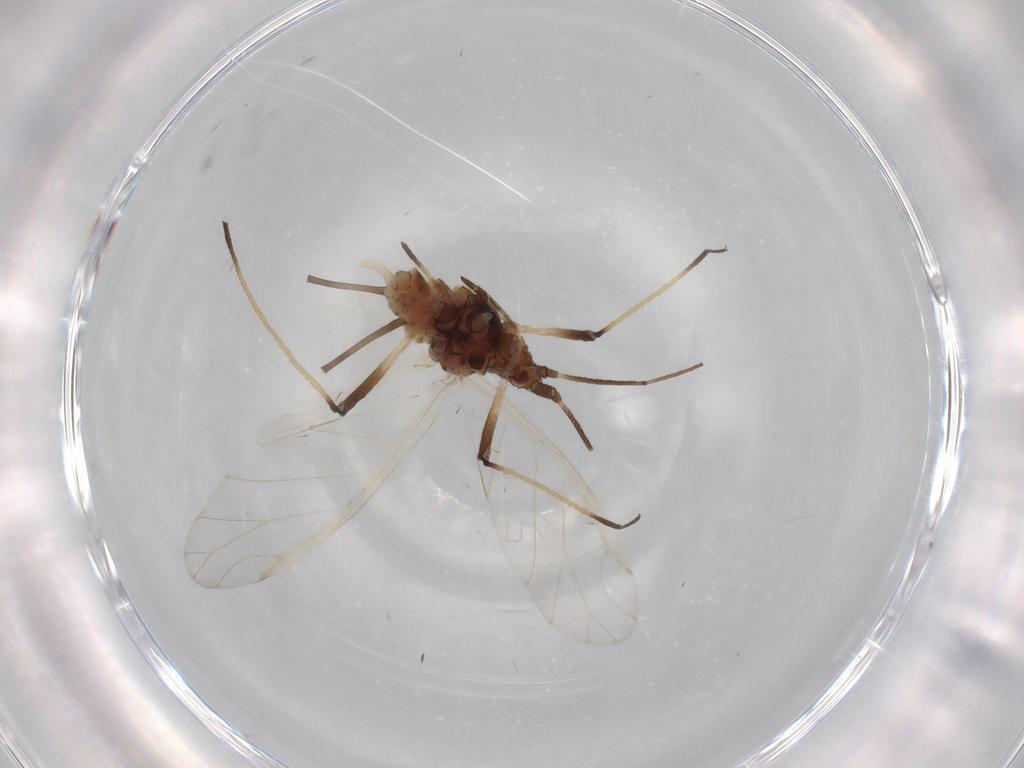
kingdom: Animalia
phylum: Arthropoda
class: Insecta
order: Hemiptera
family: Aphididae
